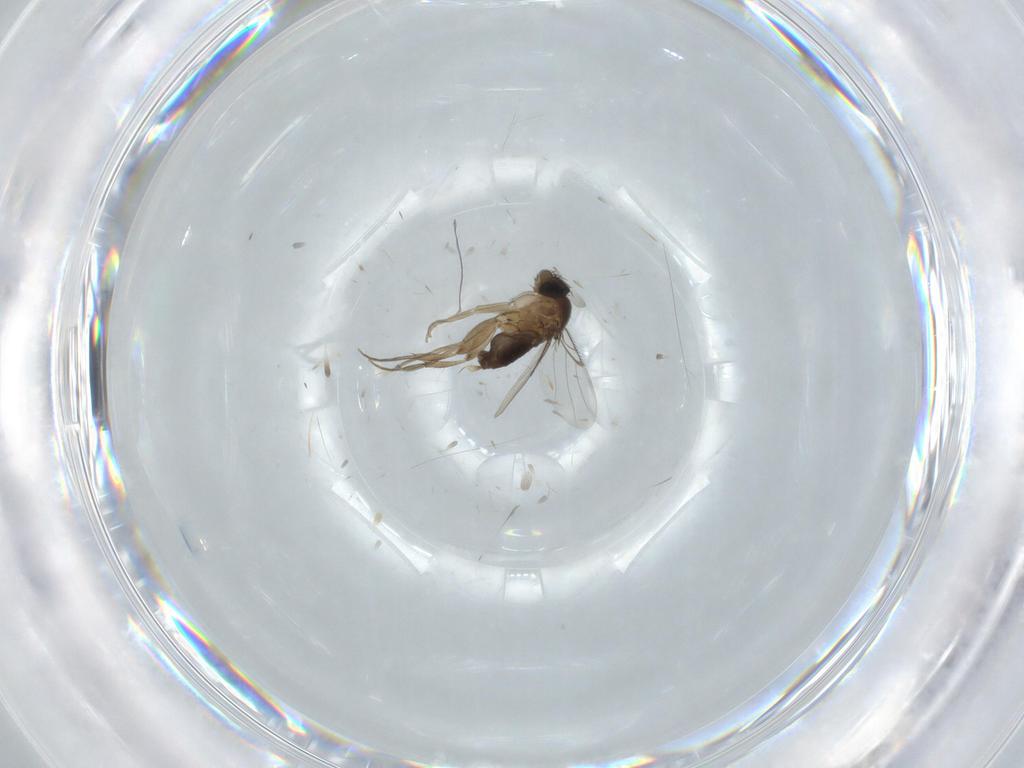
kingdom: Animalia
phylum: Arthropoda
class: Insecta
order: Diptera
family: Phoridae
